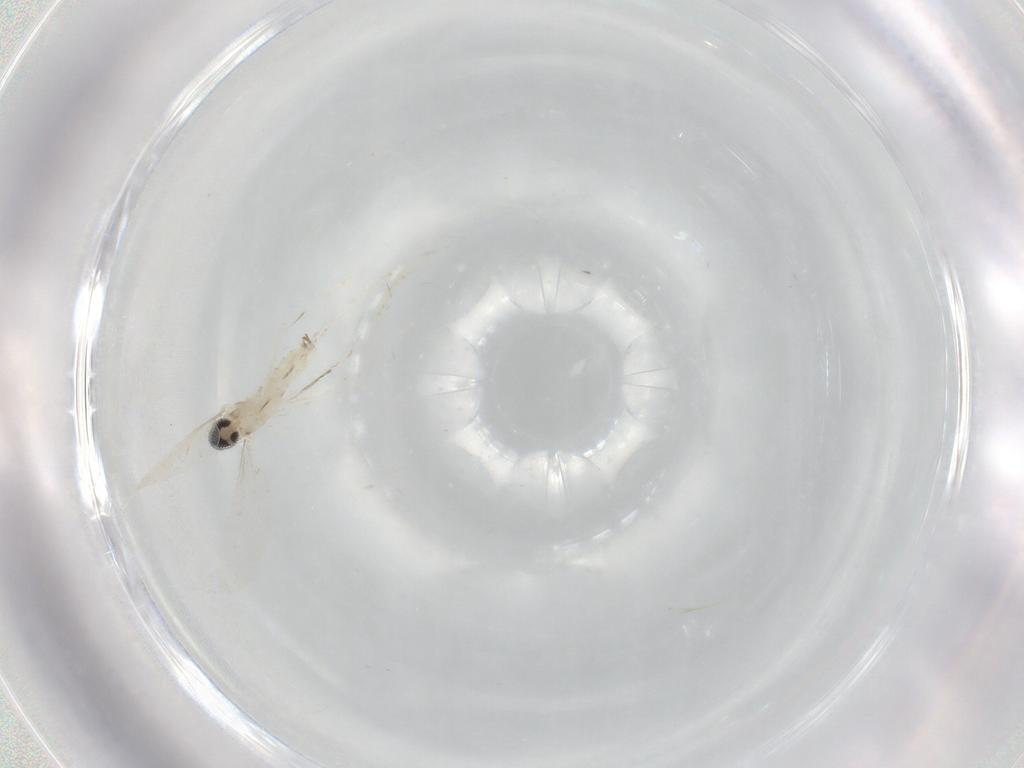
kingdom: Animalia
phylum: Arthropoda
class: Insecta
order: Diptera
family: Cecidomyiidae
